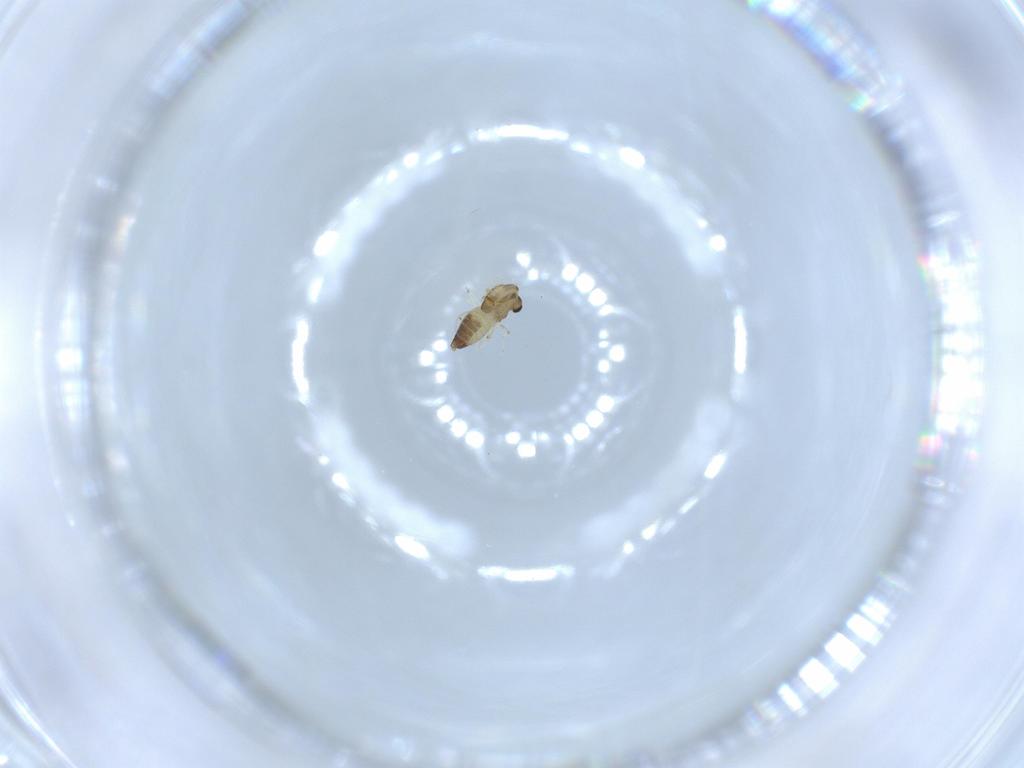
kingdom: Animalia
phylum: Arthropoda
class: Insecta
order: Diptera
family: Chironomidae
